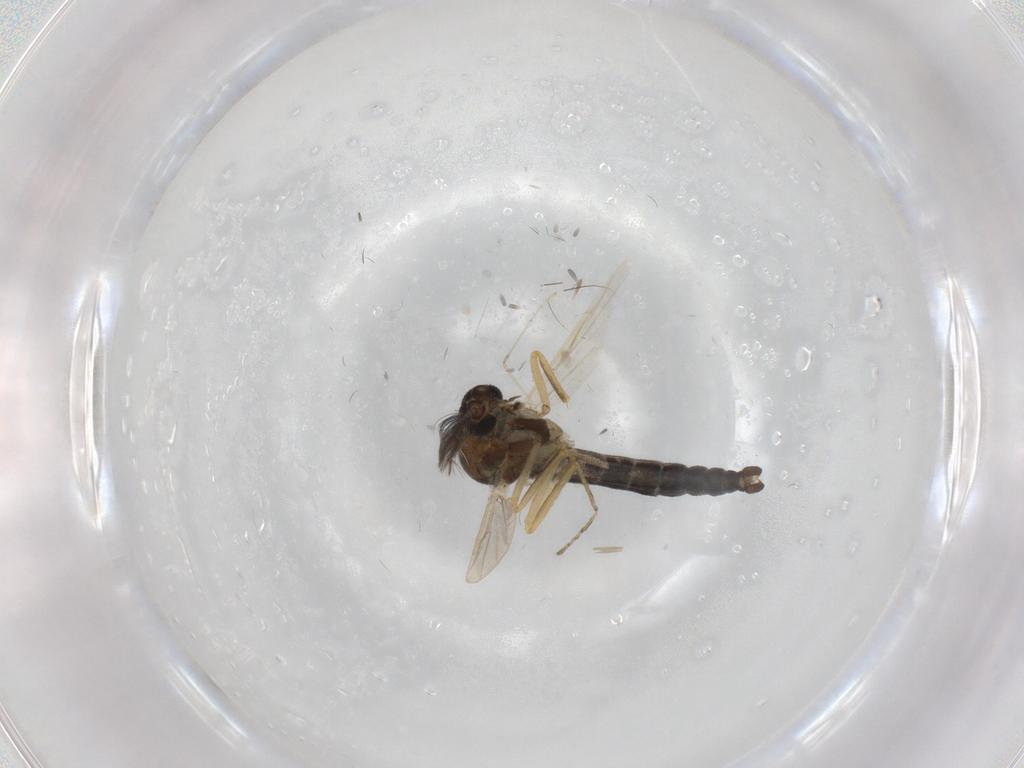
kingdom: Animalia
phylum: Arthropoda
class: Insecta
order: Diptera
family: Ceratopogonidae
